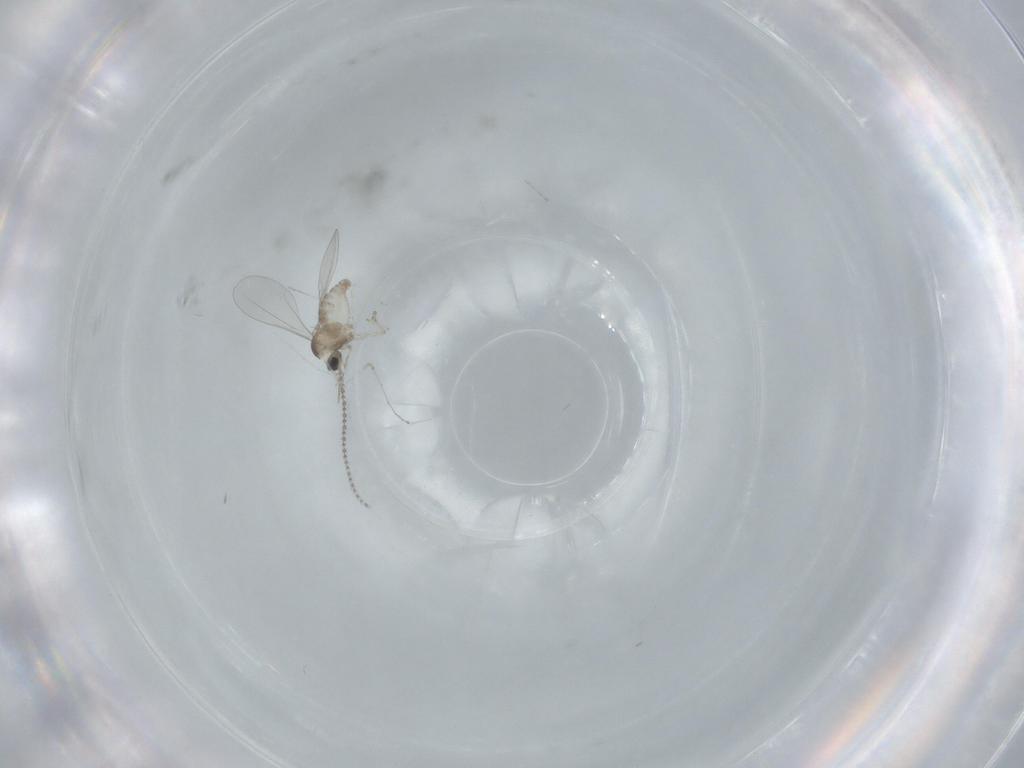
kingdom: Animalia
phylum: Arthropoda
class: Insecta
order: Diptera
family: Cecidomyiidae
